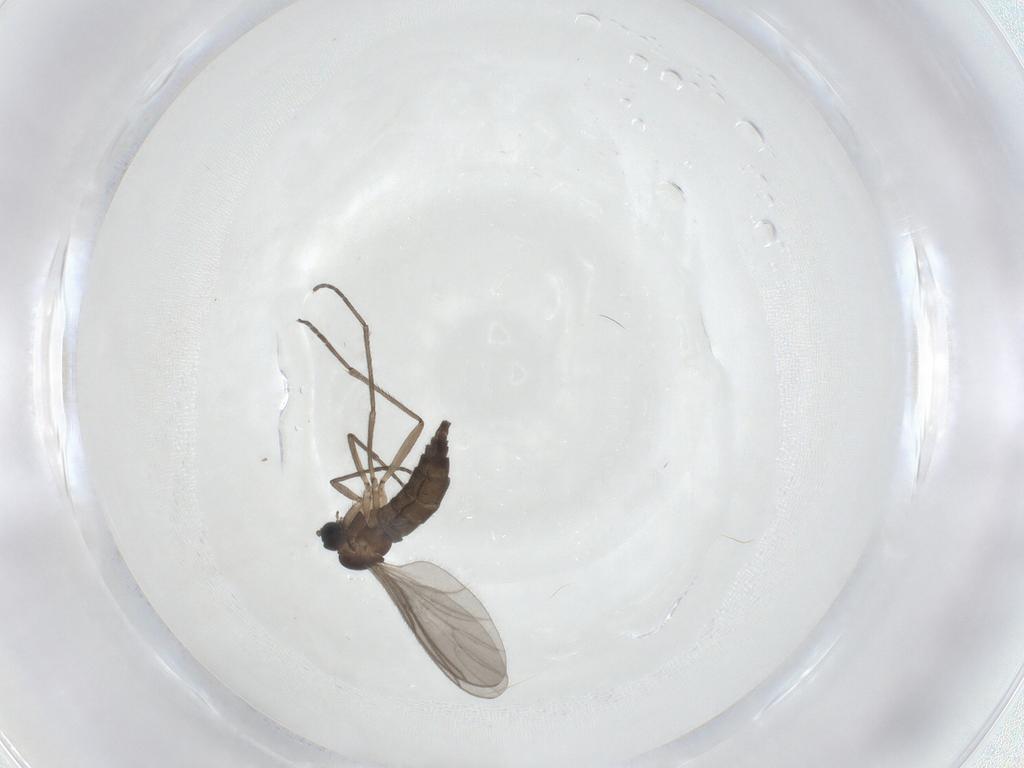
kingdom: Animalia
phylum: Arthropoda
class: Insecta
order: Diptera
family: Sciaridae
